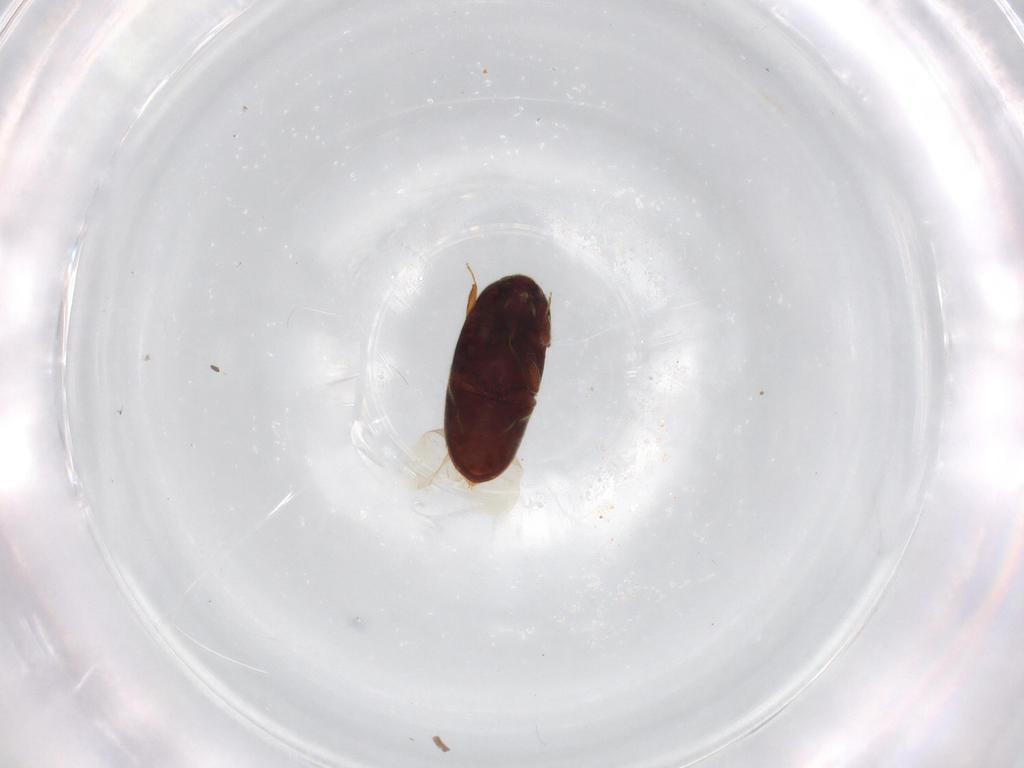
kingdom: Animalia
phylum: Arthropoda
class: Insecta
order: Coleoptera
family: Throscidae
